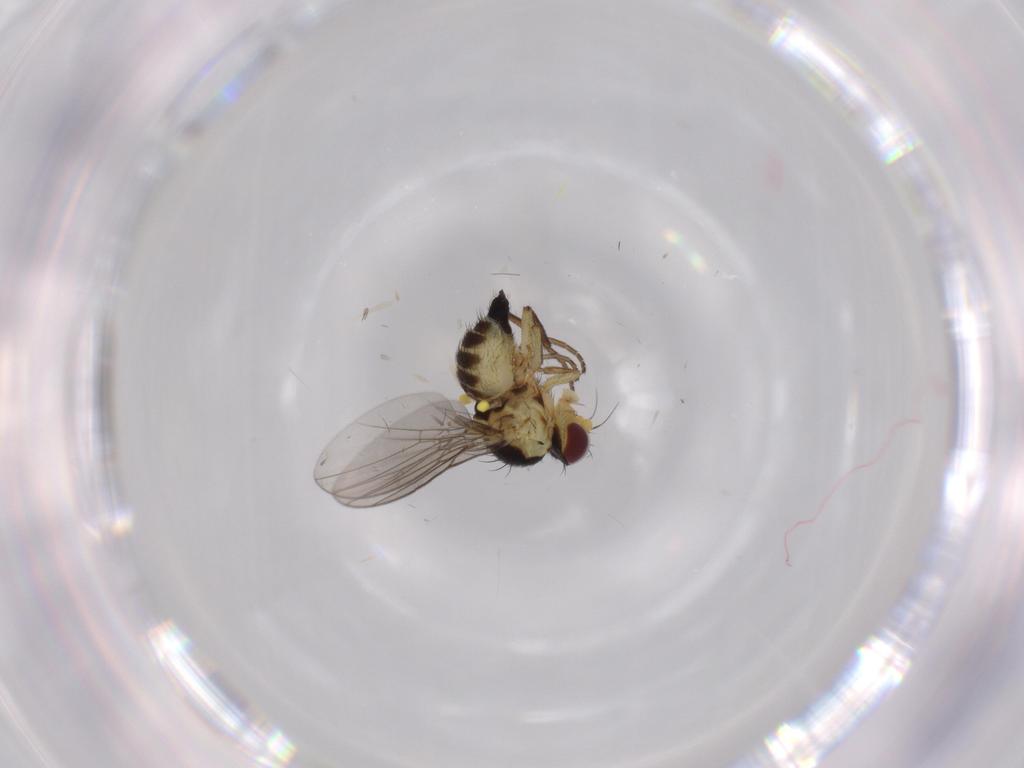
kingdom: Animalia
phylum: Arthropoda
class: Insecta
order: Diptera
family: Agromyzidae
